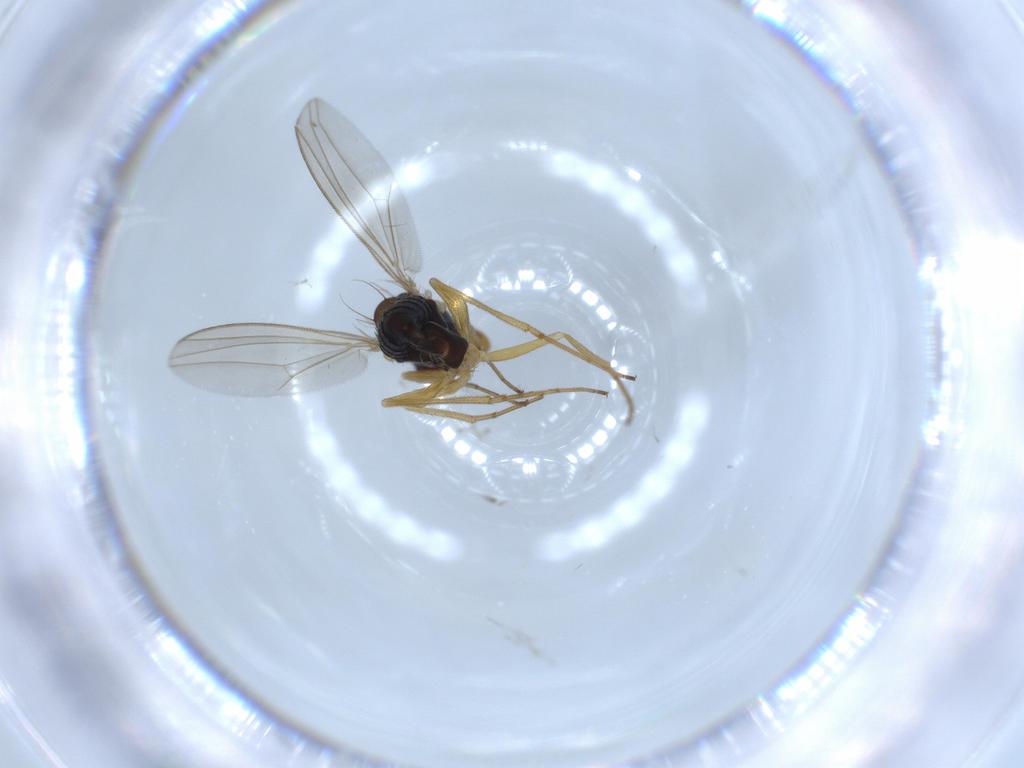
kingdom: Animalia
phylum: Arthropoda
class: Insecta
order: Diptera
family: Dolichopodidae
